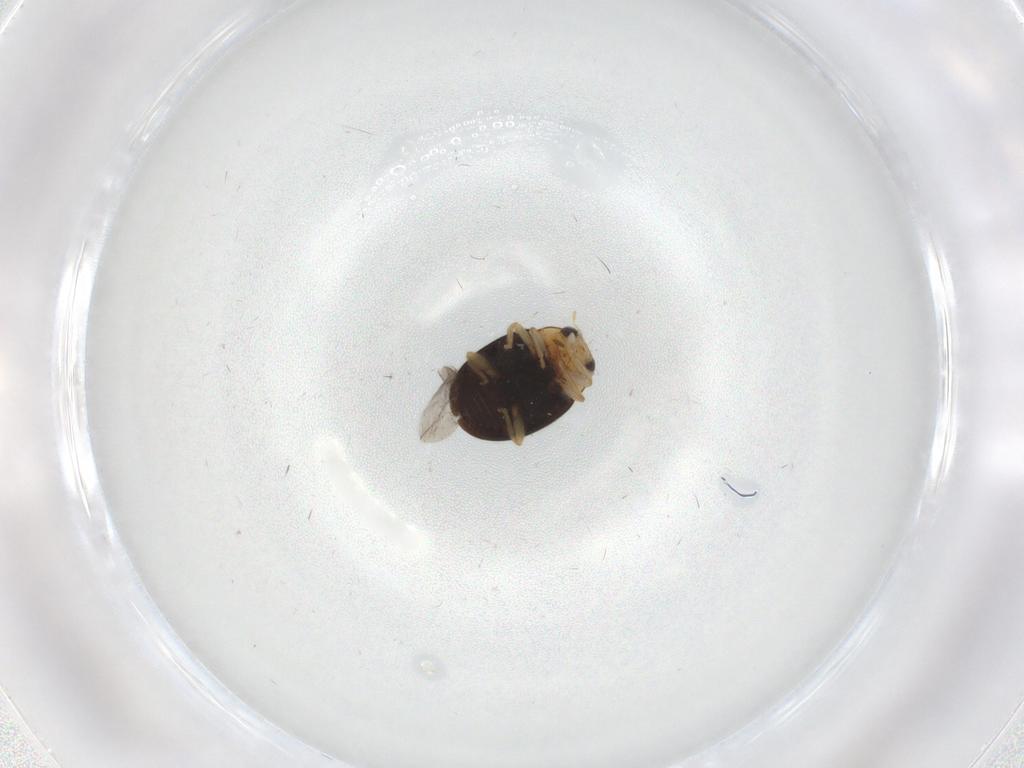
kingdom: Animalia
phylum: Arthropoda
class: Insecta
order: Coleoptera
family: Coccinellidae
